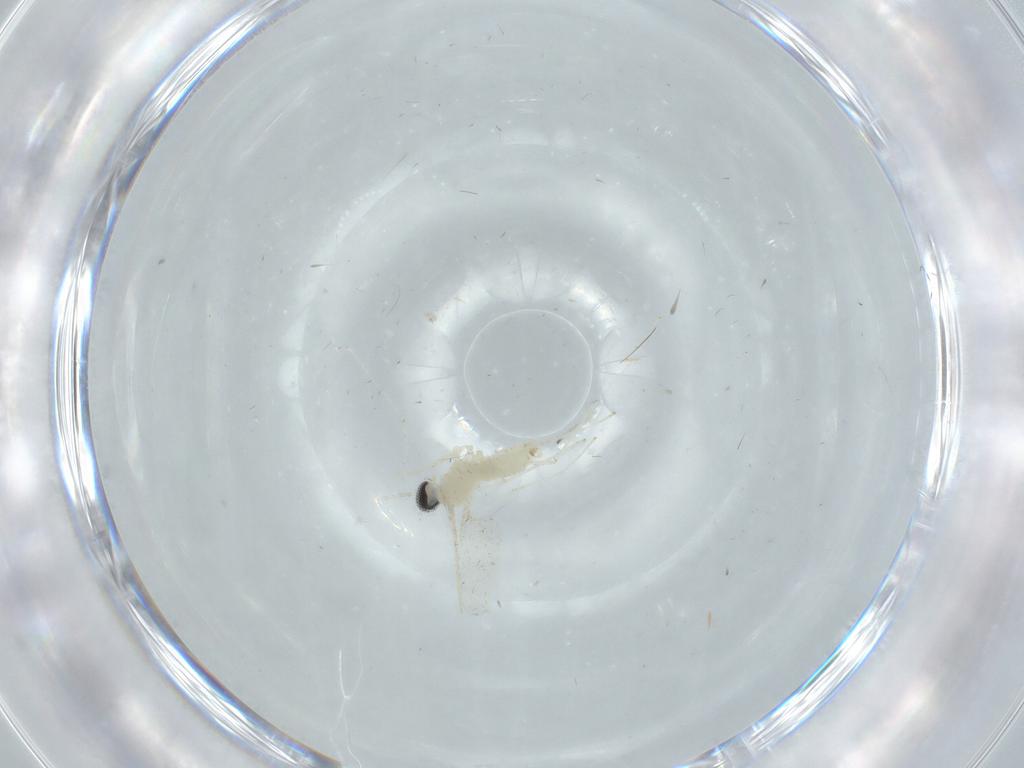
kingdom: Animalia
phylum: Arthropoda
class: Insecta
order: Diptera
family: Cecidomyiidae
